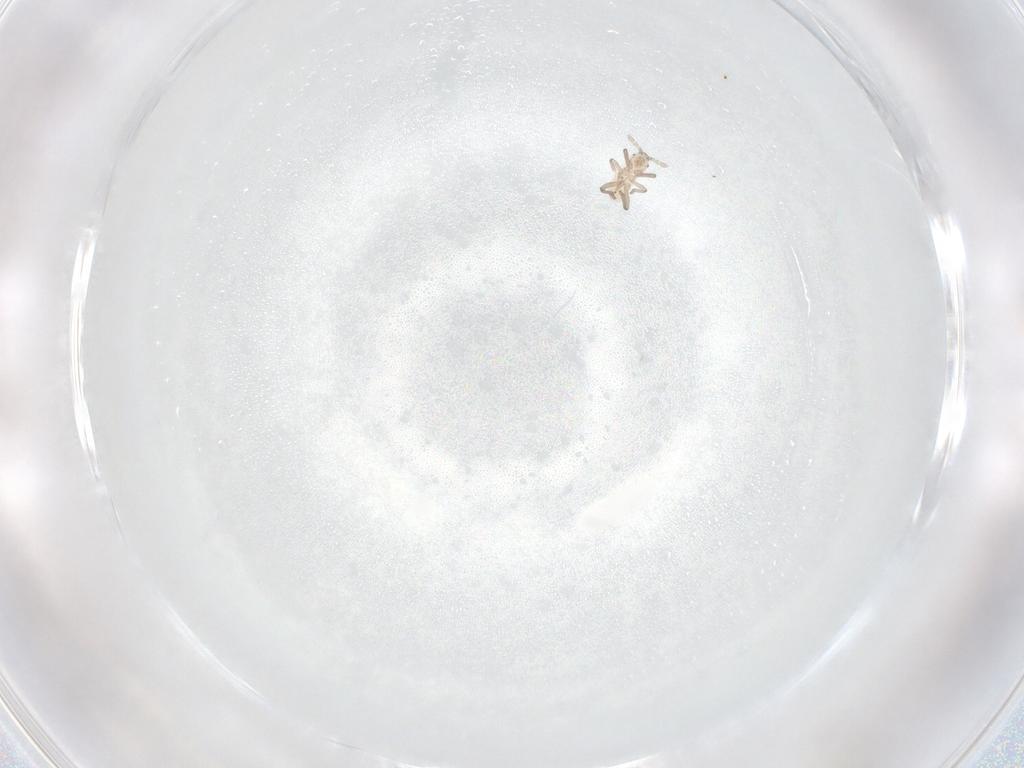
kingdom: Animalia
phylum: Arthropoda
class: Insecta
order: Hemiptera
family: Aphididae
